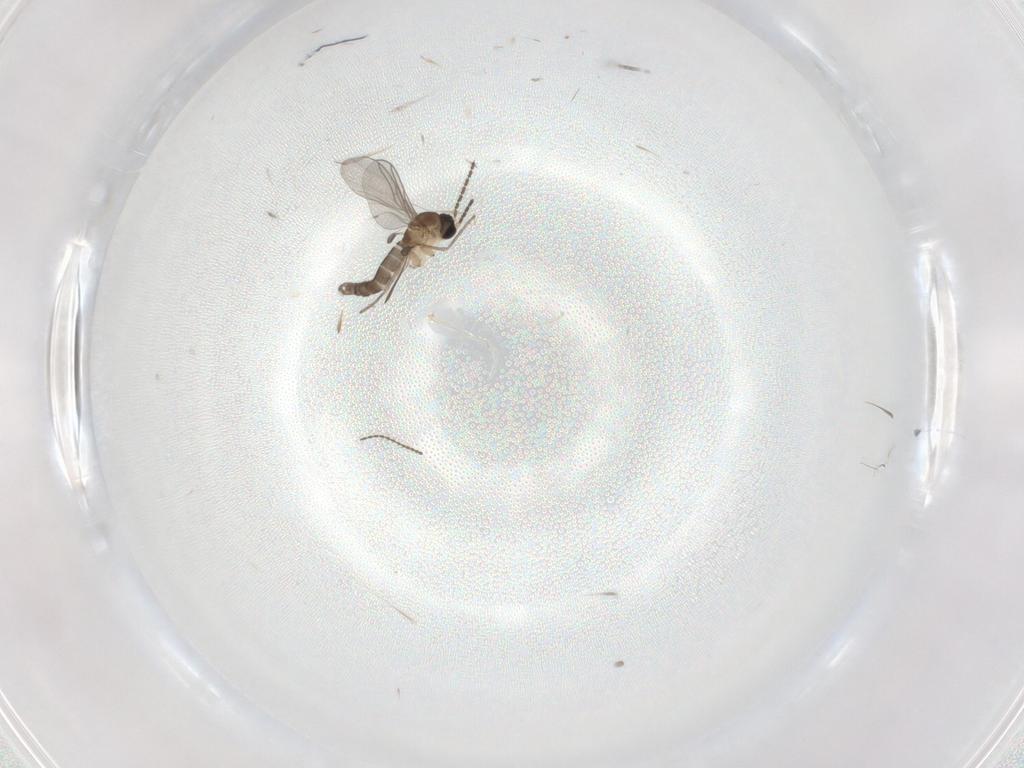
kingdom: Animalia
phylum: Arthropoda
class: Insecta
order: Diptera
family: Sciaridae
